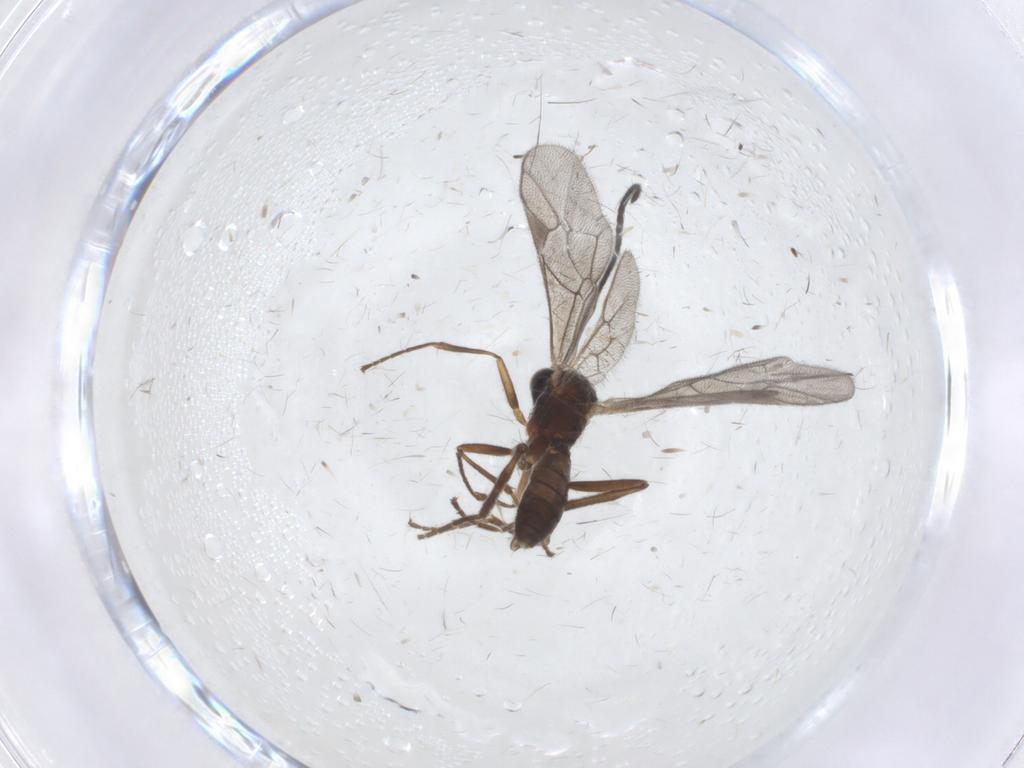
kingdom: Animalia
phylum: Arthropoda
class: Insecta
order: Hymenoptera
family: Ichneumonidae
